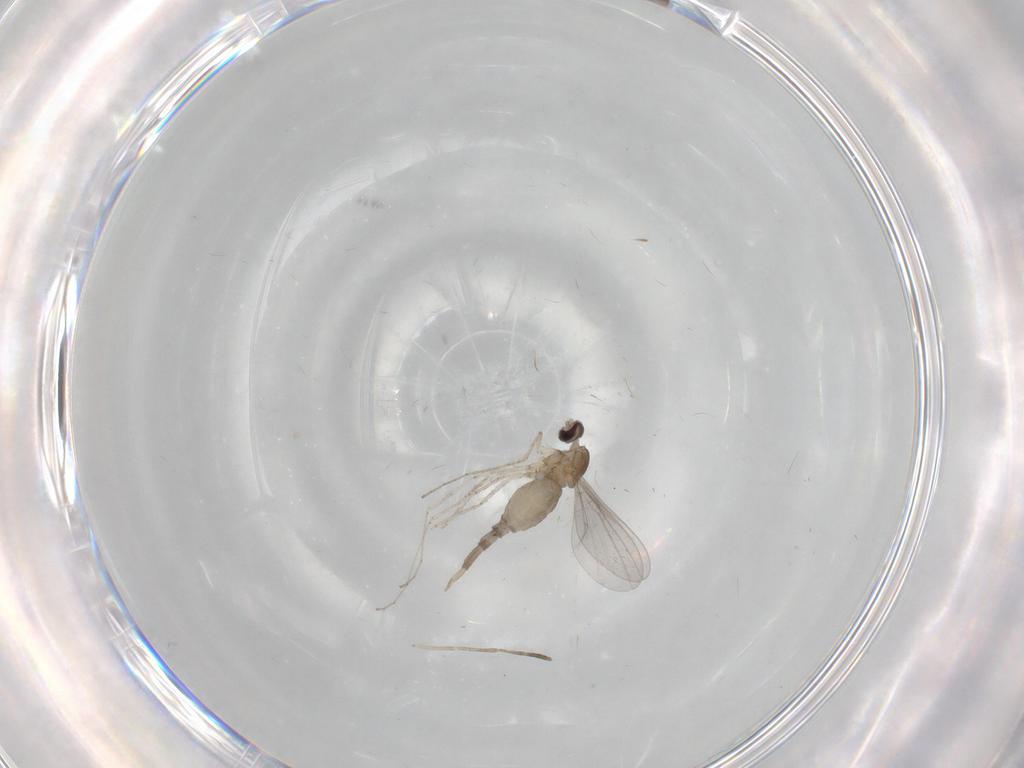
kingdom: Animalia
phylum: Arthropoda
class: Insecta
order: Diptera
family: Cecidomyiidae
